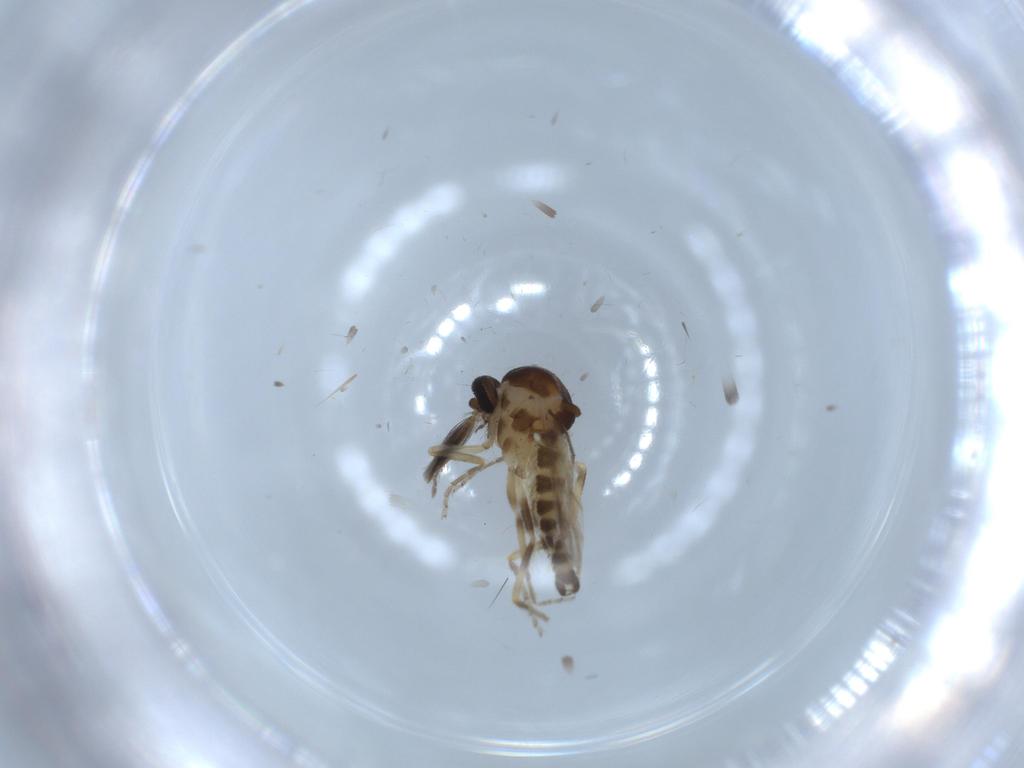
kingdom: Animalia
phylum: Arthropoda
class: Insecta
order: Diptera
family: Ceratopogonidae
